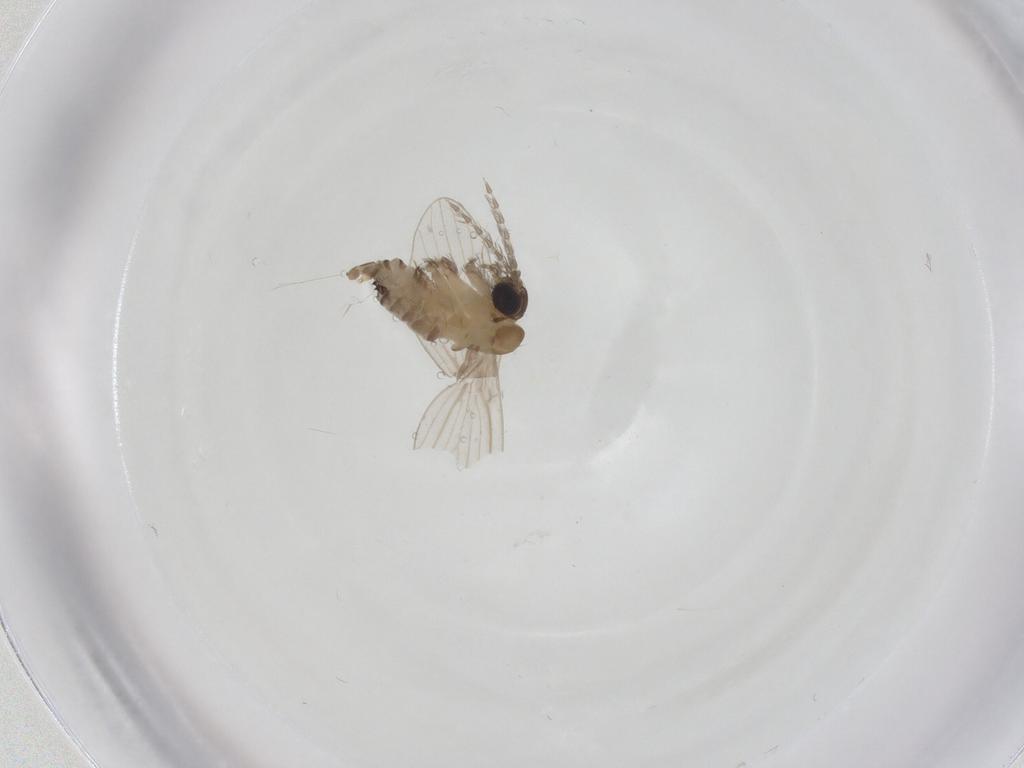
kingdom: Animalia
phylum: Arthropoda
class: Insecta
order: Diptera
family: Psychodidae
